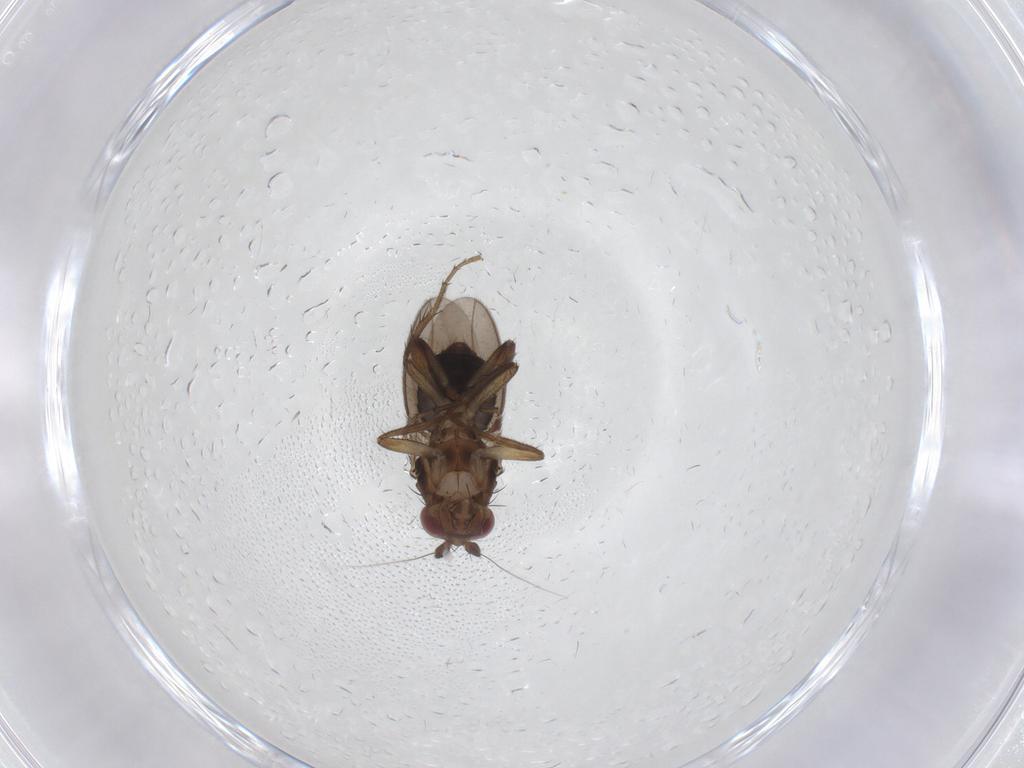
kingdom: Animalia
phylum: Arthropoda
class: Insecta
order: Diptera
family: Sphaeroceridae
